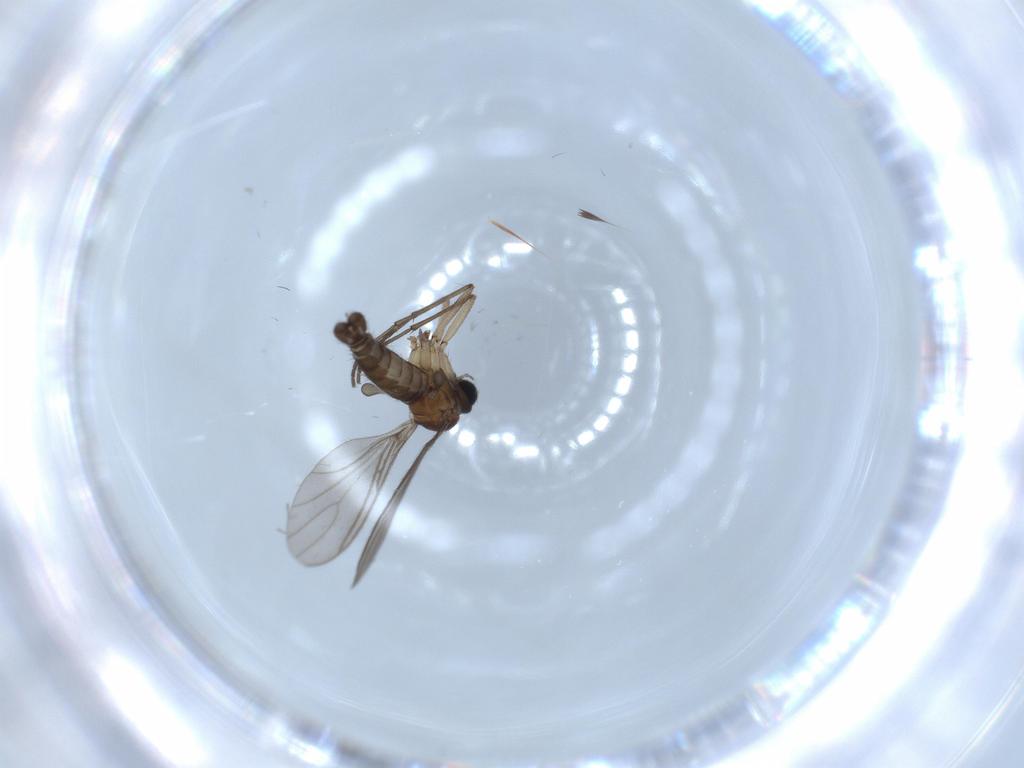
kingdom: Animalia
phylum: Arthropoda
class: Insecta
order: Diptera
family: Sciaridae
